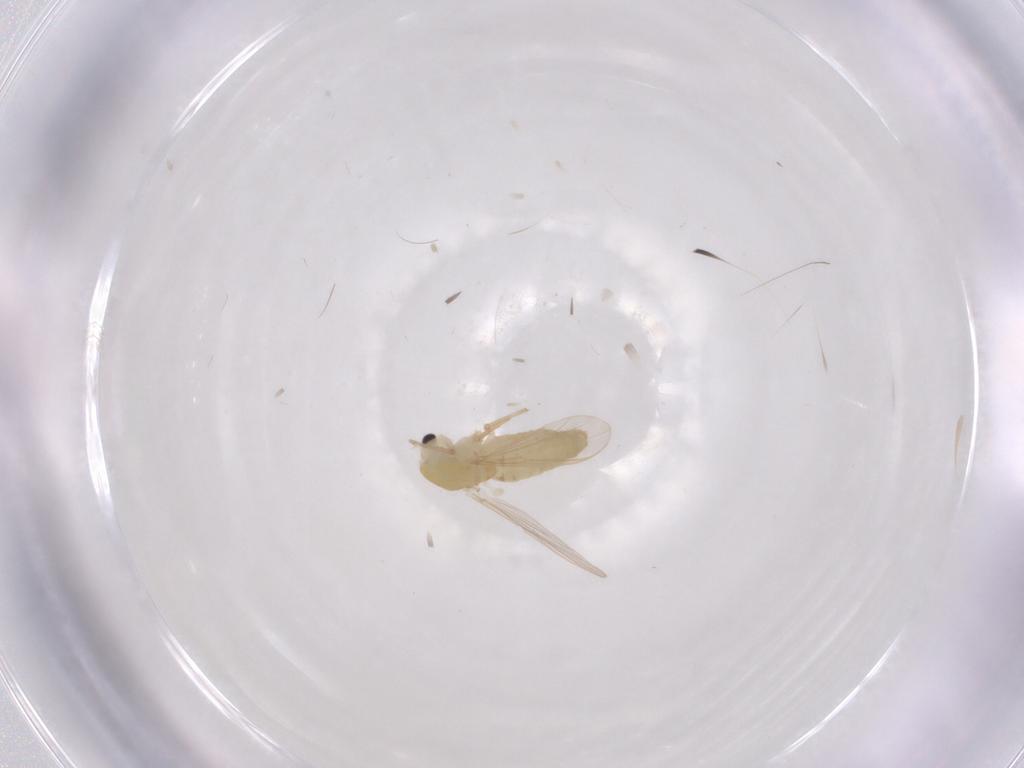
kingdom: Animalia
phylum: Arthropoda
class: Insecta
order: Diptera
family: Chironomidae
